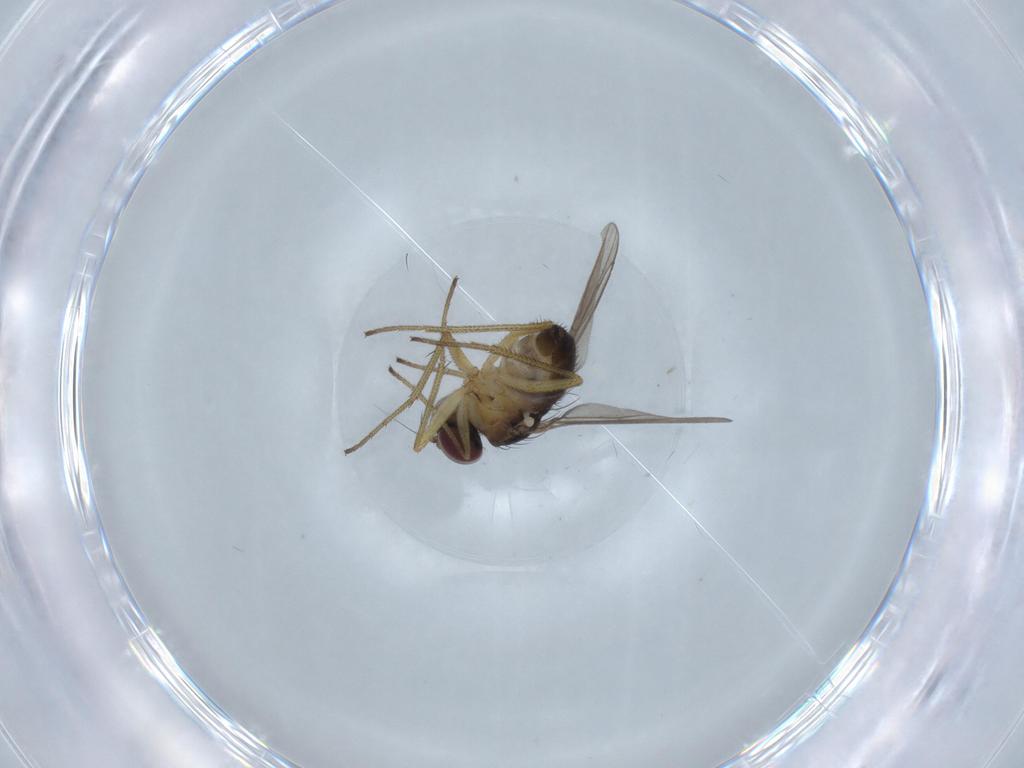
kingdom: Animalia
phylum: Arthropoda
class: Insecta
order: Diptera
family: Dolichopodidae
